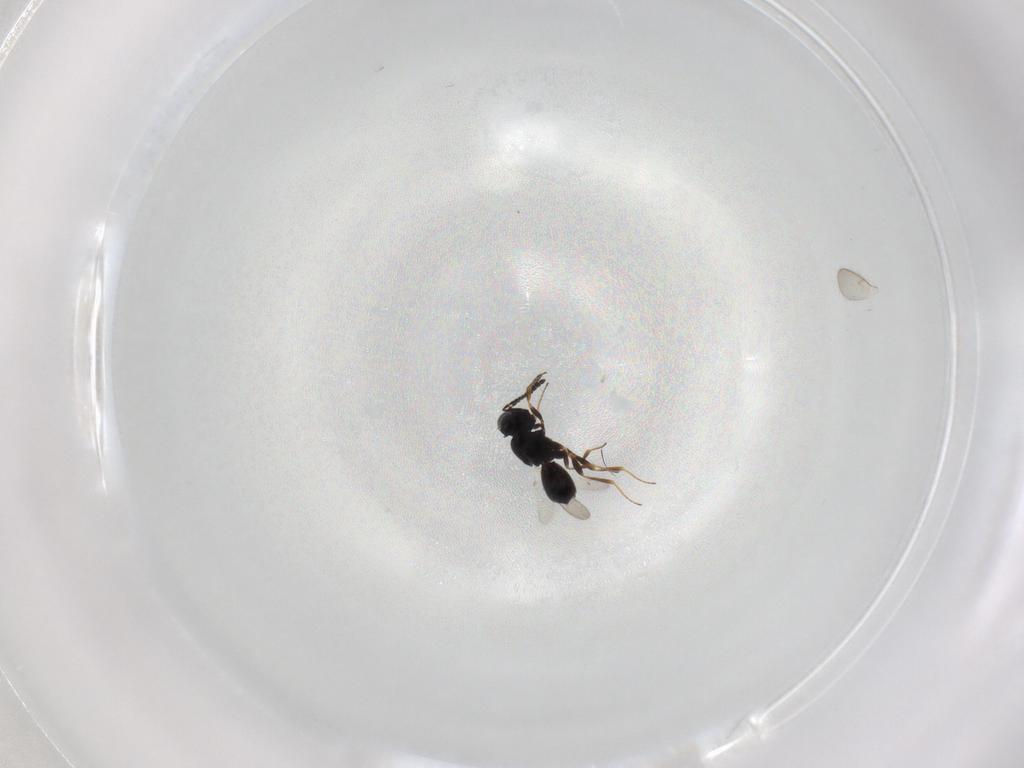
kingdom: Animalia
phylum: Arthropoda
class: Insecta
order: Hymenoptera
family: Scelionidae
